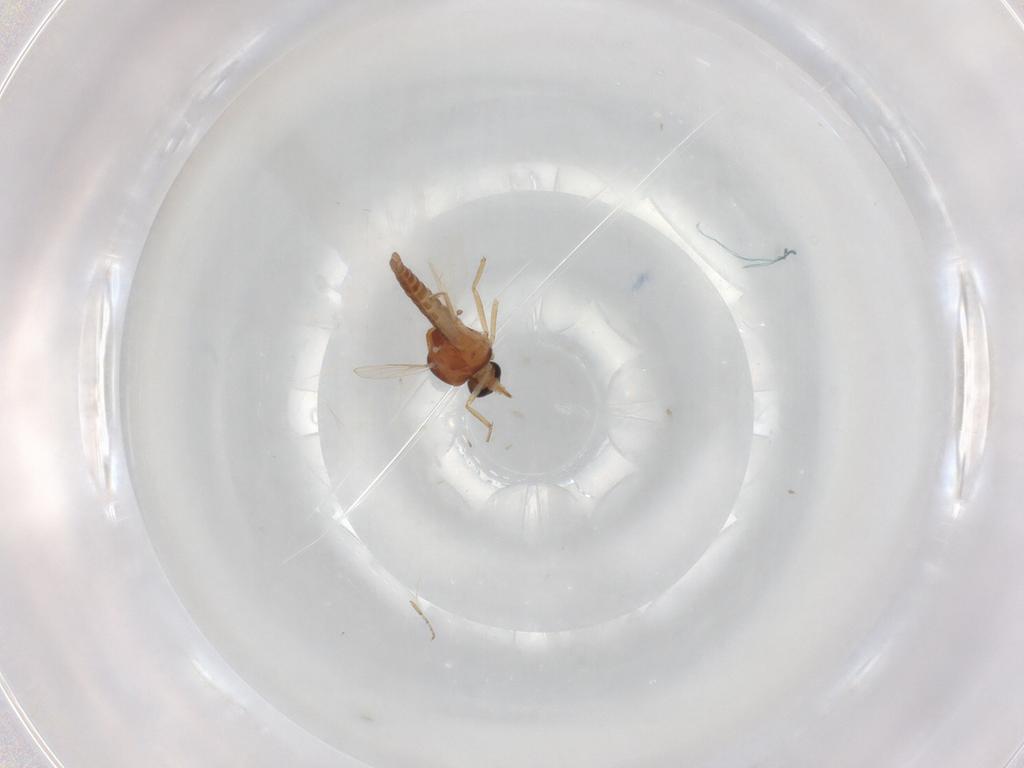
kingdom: Animalia
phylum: Arthropoda
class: Insecta
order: Diptera
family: Ceratopogonidae
